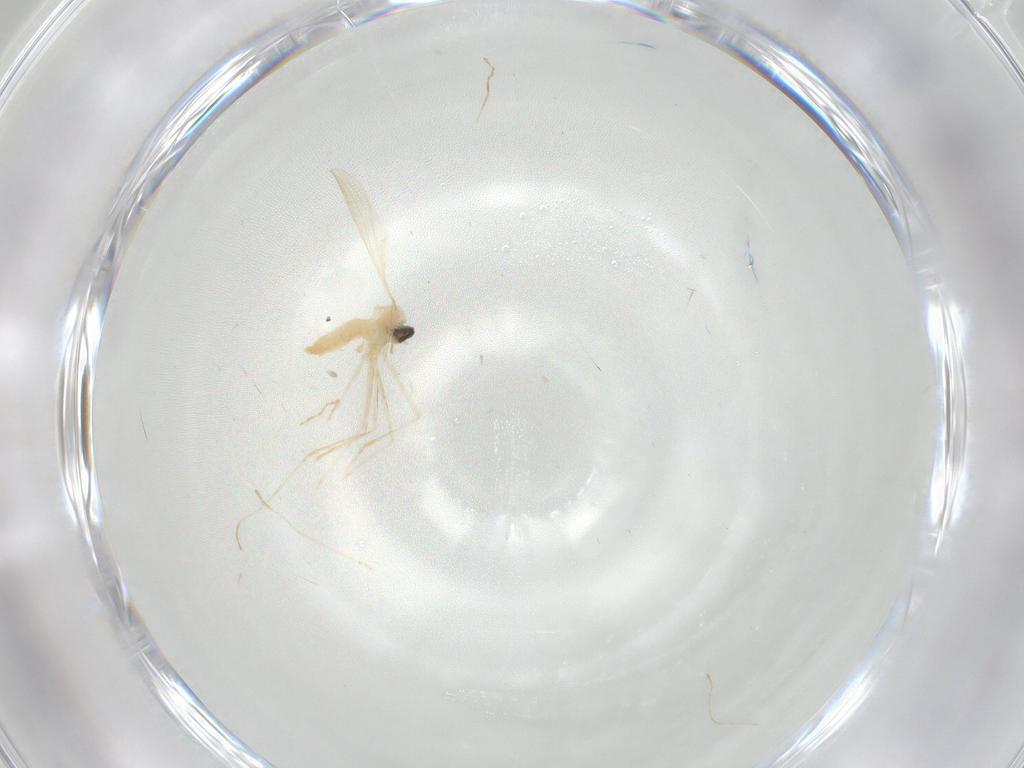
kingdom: Animalia
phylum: Arthropoda
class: Insecta
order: Diptera
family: Cecidomyiidae
